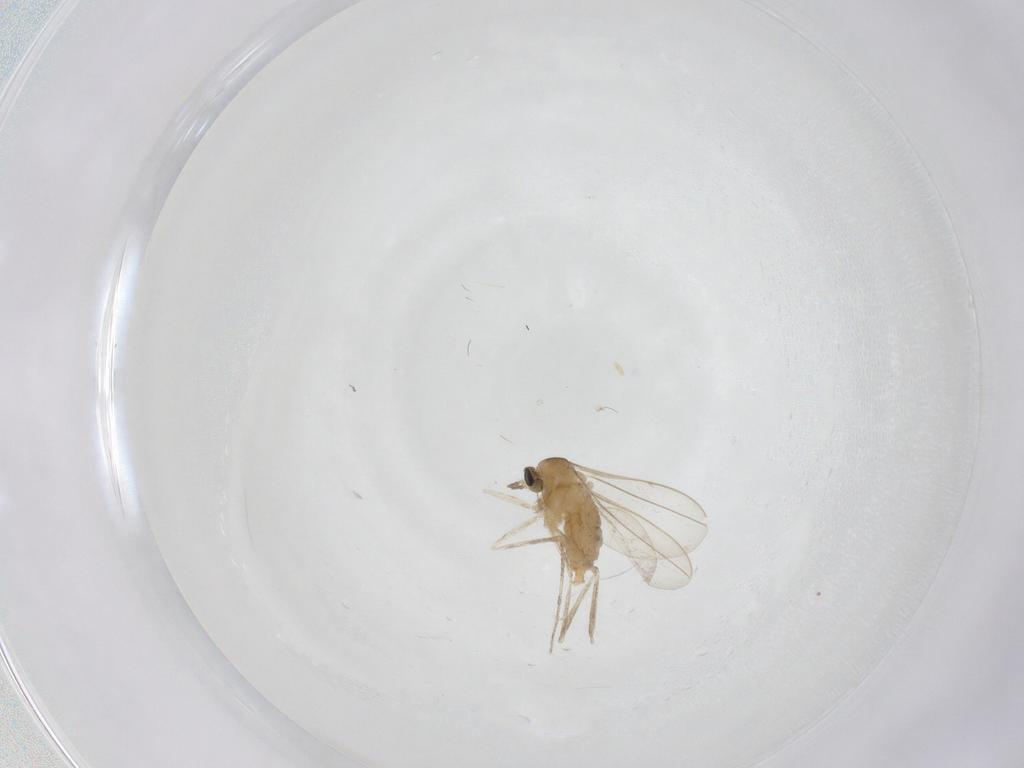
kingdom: Animalia
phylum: Arthropoda
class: Insecta
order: Diptera
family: Cecidomyiidae
